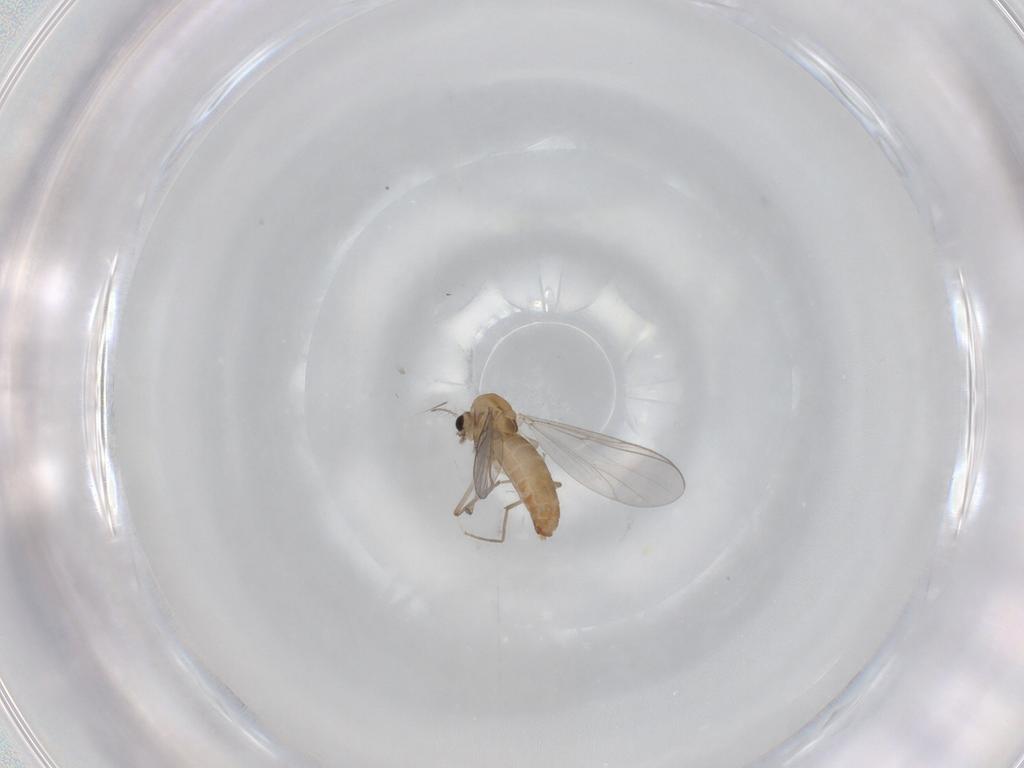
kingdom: Animalia
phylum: Arthropoda
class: Insecta
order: Diptera
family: Chironomidae
